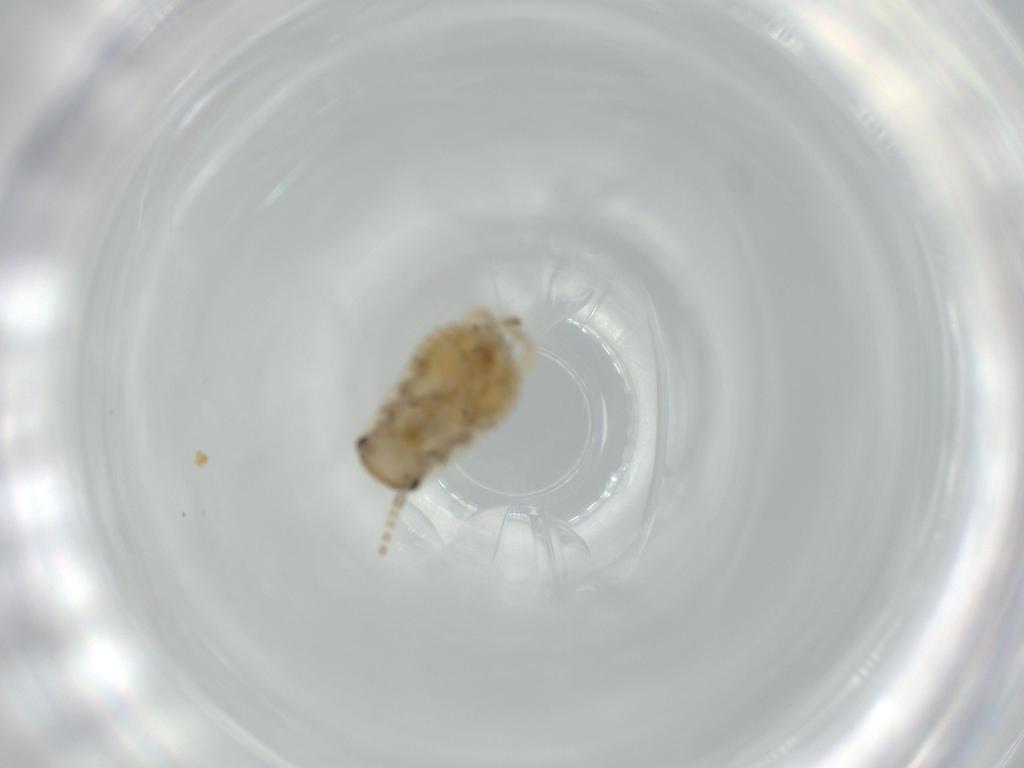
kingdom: Animalia
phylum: Arthropoda
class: Insecta
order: Blattodea
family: Ectobiidae
